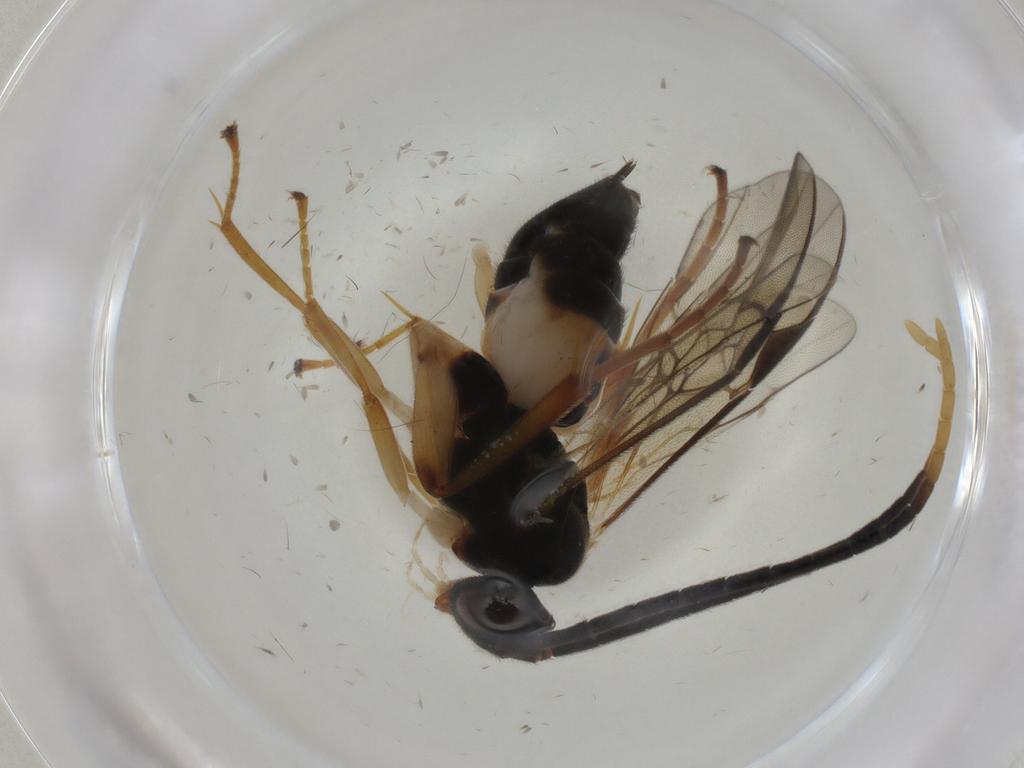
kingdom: Animalia
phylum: Arthropoda
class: Insecta
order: Hymenoptera
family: Braconidae
